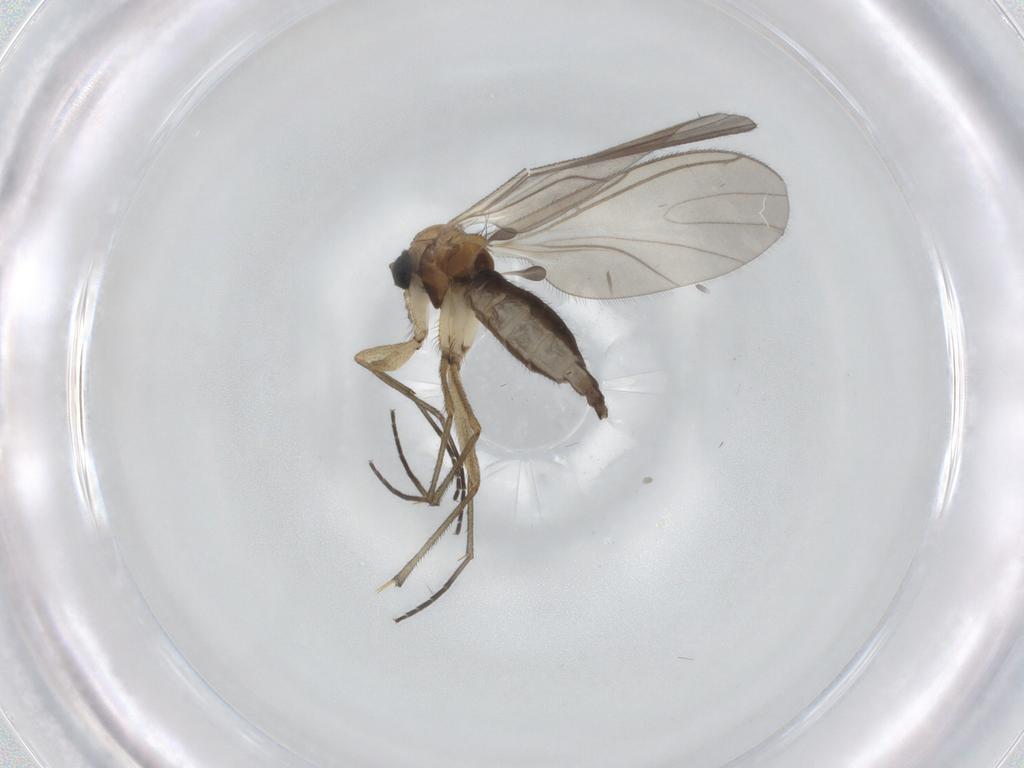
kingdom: Animalia
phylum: Arthropoda
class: Insecta
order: Diptera
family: Sciaridae
